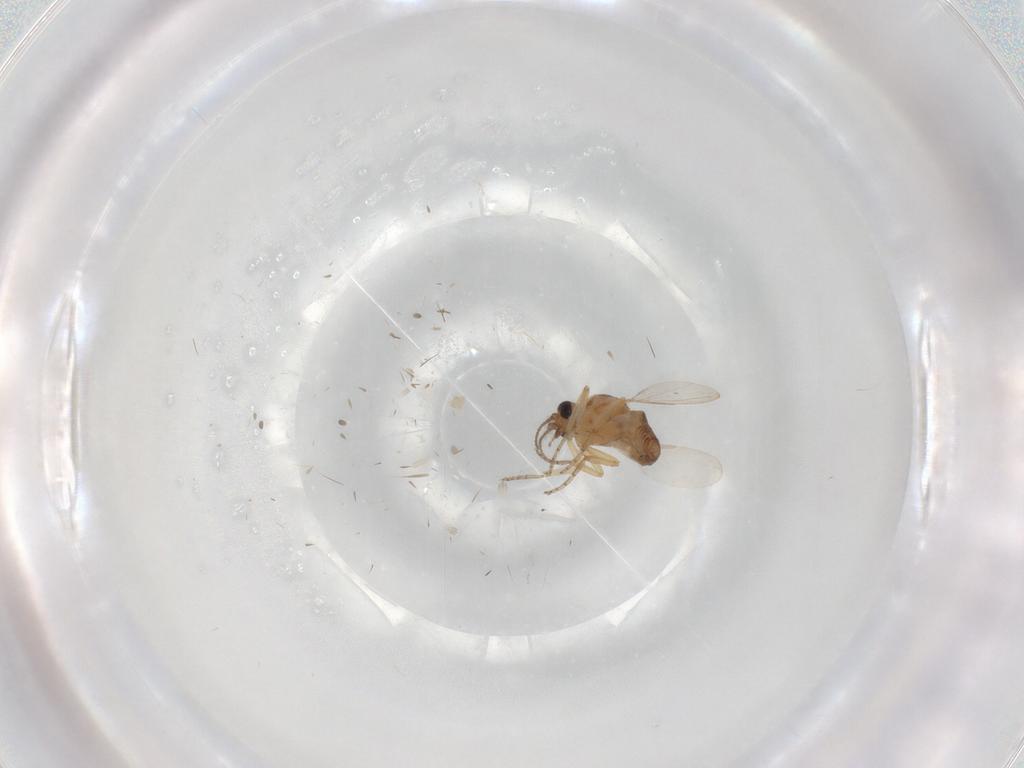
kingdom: Animalia
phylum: Arthropoda
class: Insecta
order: Diptera
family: Ceratopogonidae
